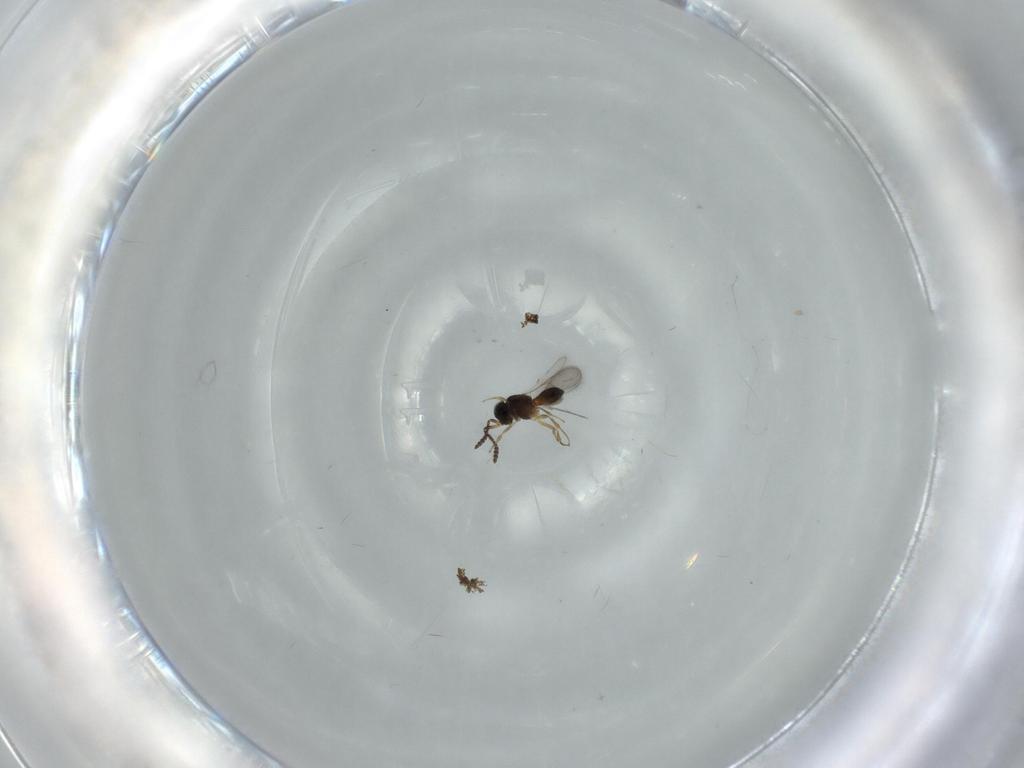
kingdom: Animalia
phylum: Arthropoda
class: Insecta
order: Hymenoptera
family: Scelionidae
